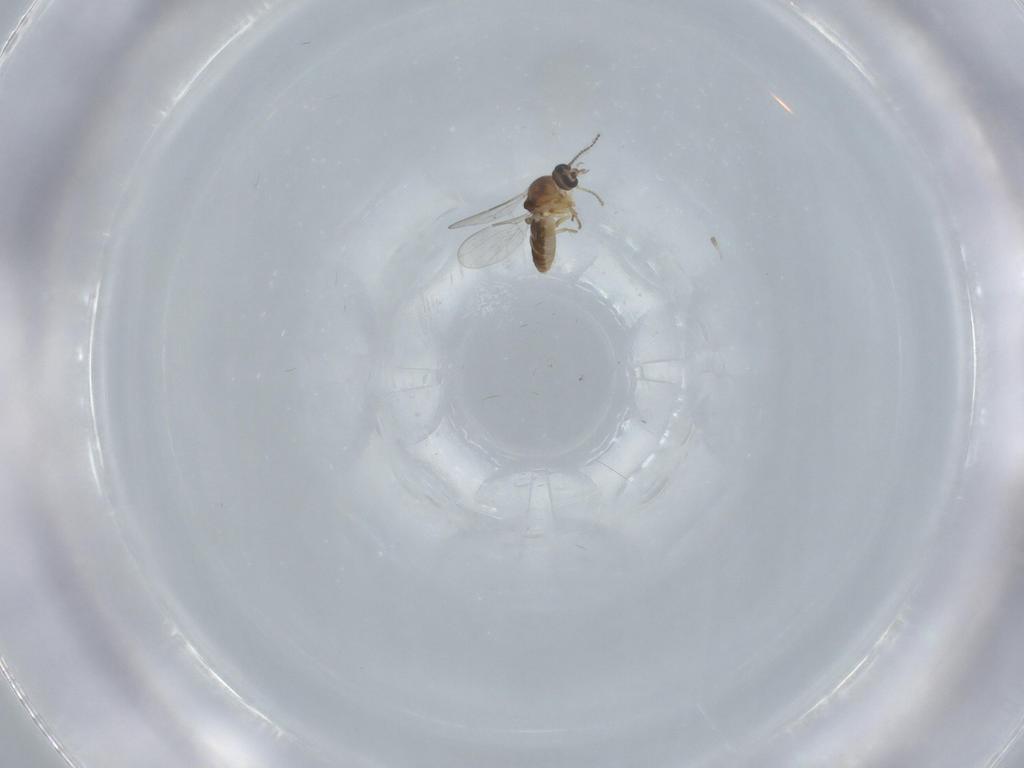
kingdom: Animalia
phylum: Arthropoda
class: Insecta
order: Diptera
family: Ceratopogonidae
